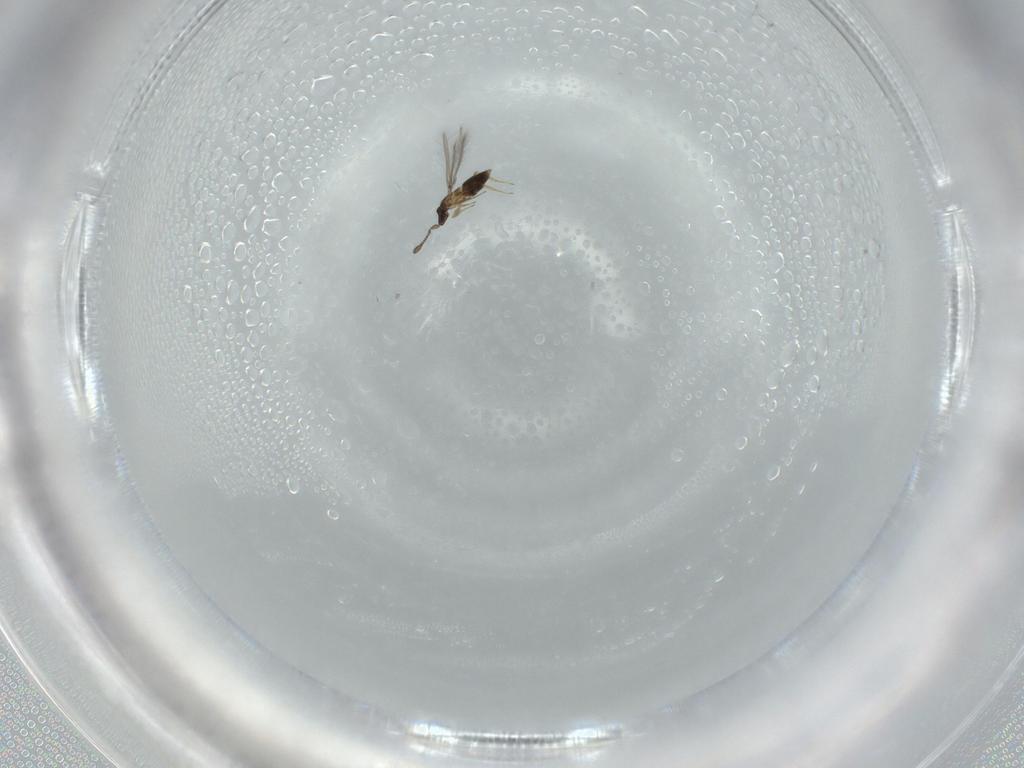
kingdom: Animalia
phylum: Arthropoda
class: Insecta
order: Hymenoptera
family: Mymaridae
